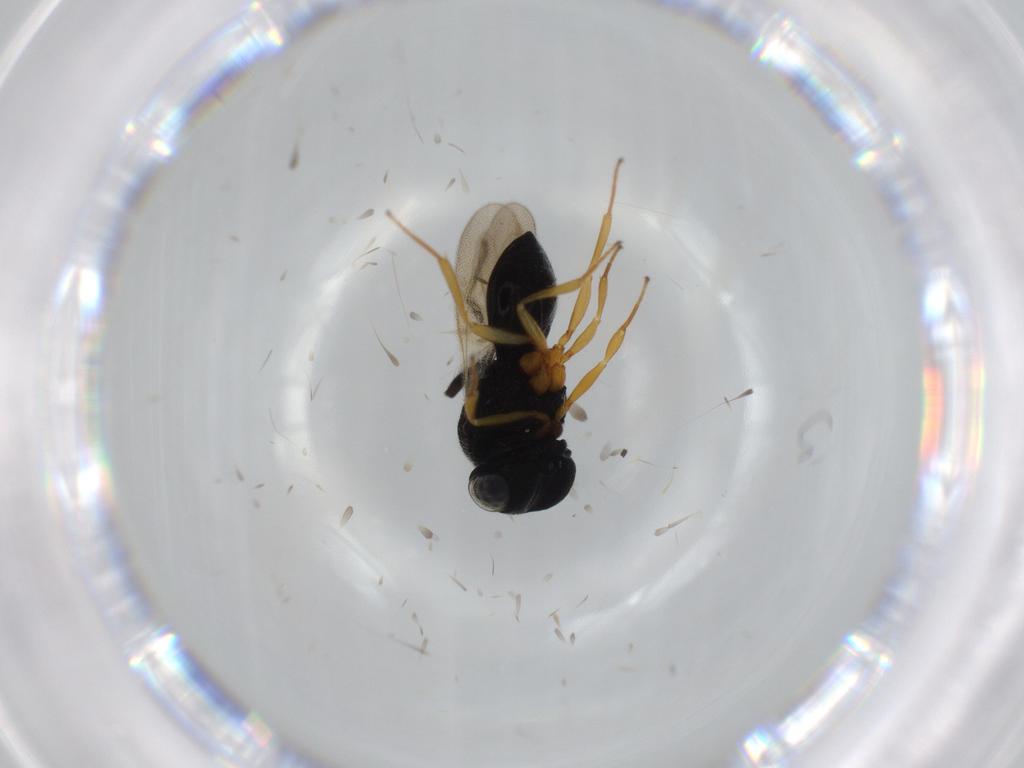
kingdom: Animalia
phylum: Arthropoda
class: Insecta
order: Hymenoptera
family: Scelionidae
